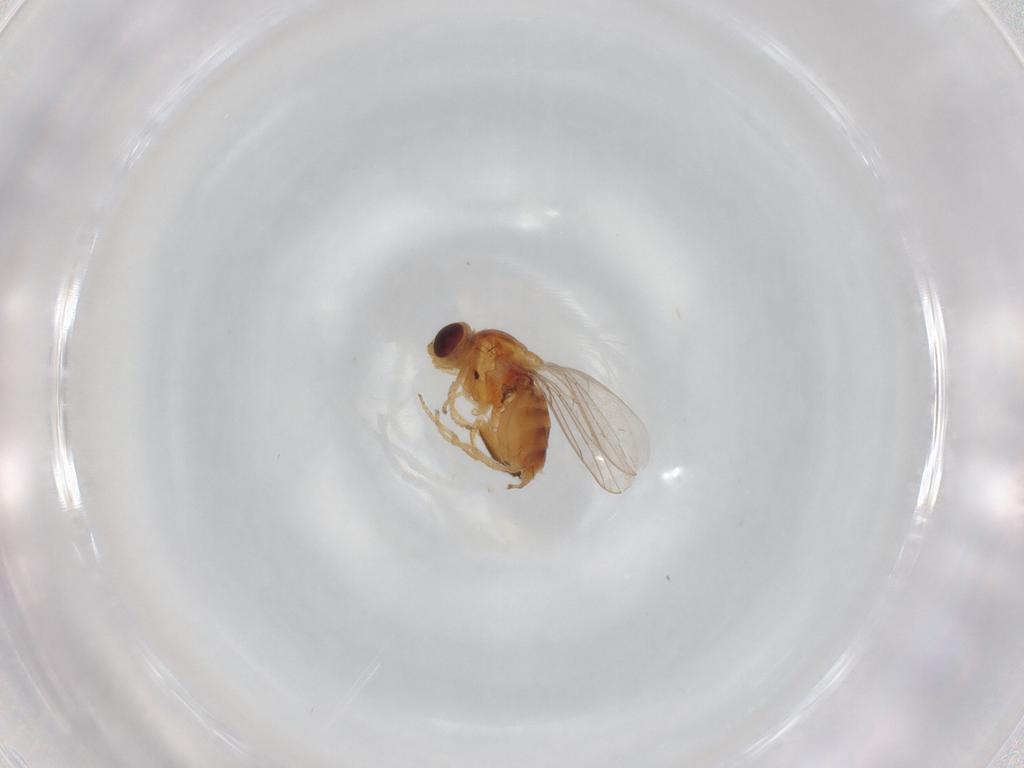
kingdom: Animalia
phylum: Arthropoda
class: Insecta
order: Diptera
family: Chloropidae
